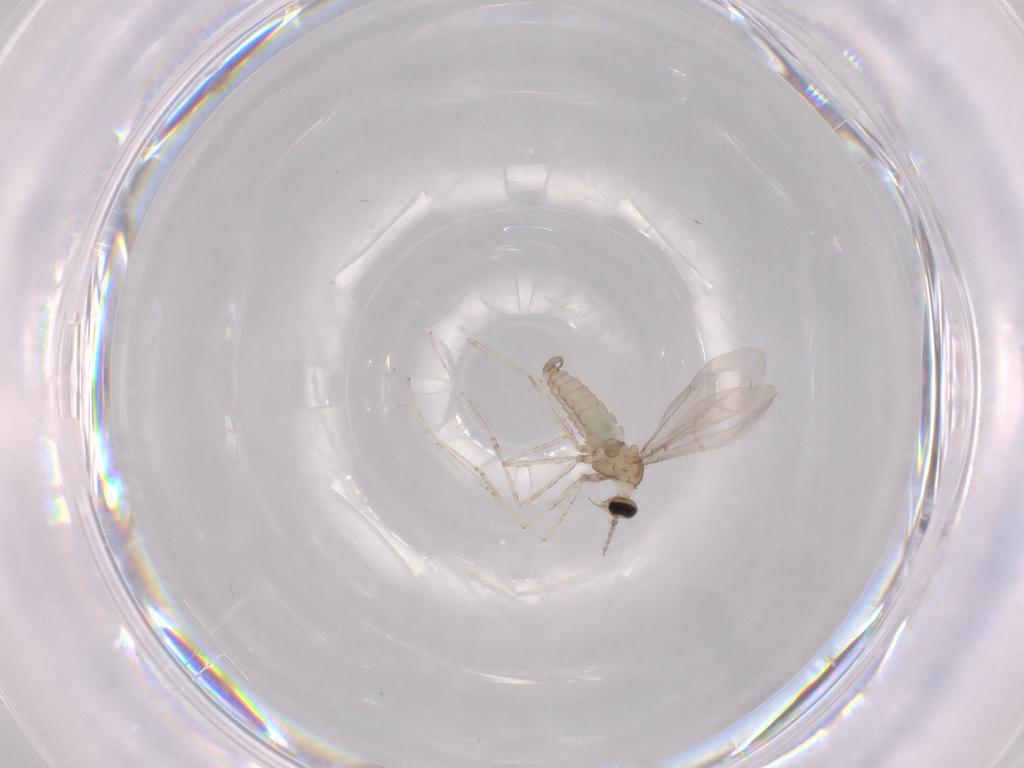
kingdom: Animalia
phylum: Arthropoda
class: Insecta
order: Diptera
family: Cecidomyiidae
